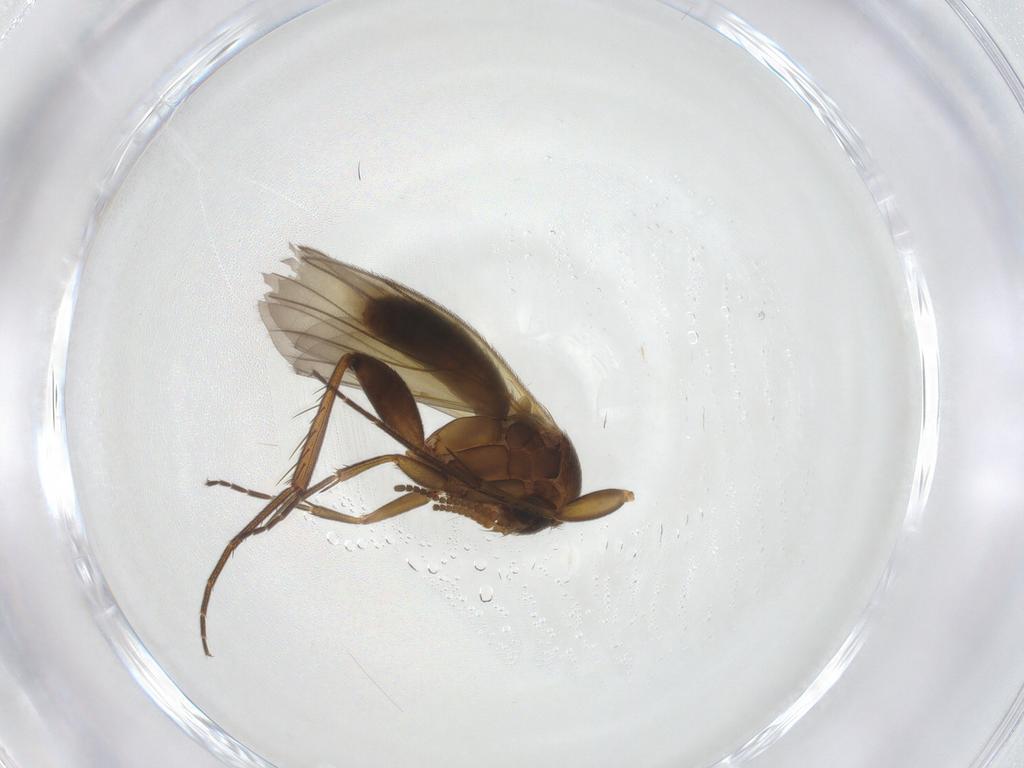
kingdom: Animalia
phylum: Arthropoda
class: Insecta
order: Diptera
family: Mycetophilidae
